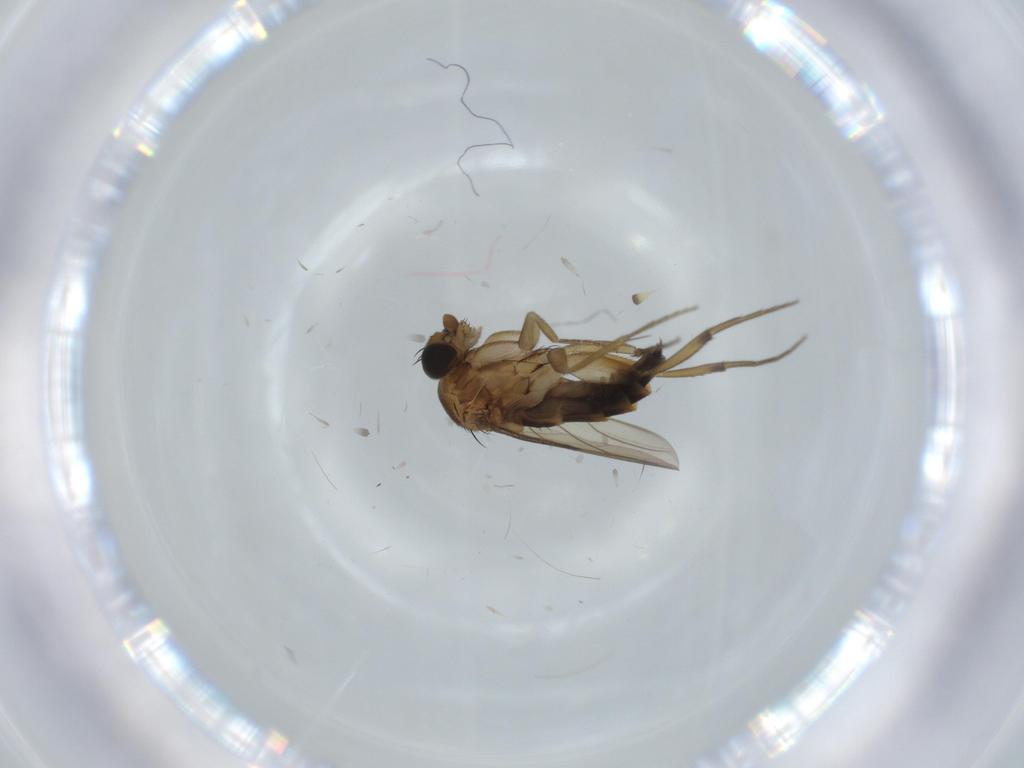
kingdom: Animalia
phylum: Arthropoda
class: Insecta
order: Diptera
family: Phoridae
